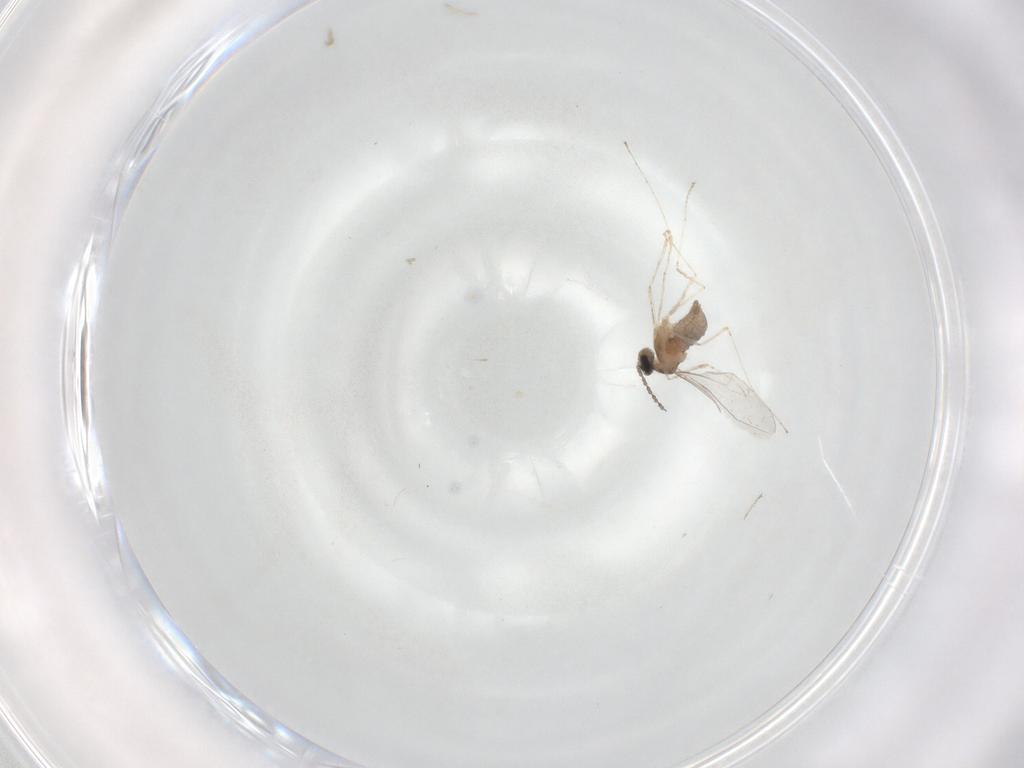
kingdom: Animalia
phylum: Arthropoda
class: Insecta
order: Diptera
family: Cecidomyiidae
